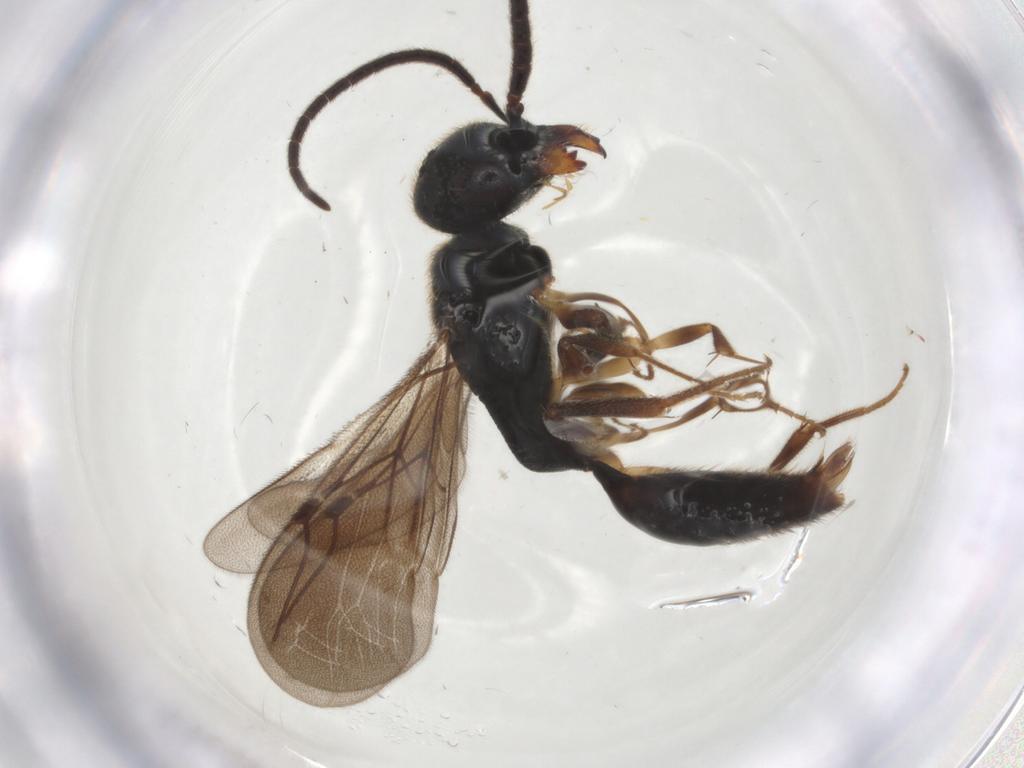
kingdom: Animalia
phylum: Arthropoda
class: Insecta
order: Hymenoptera
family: Bethylidae
